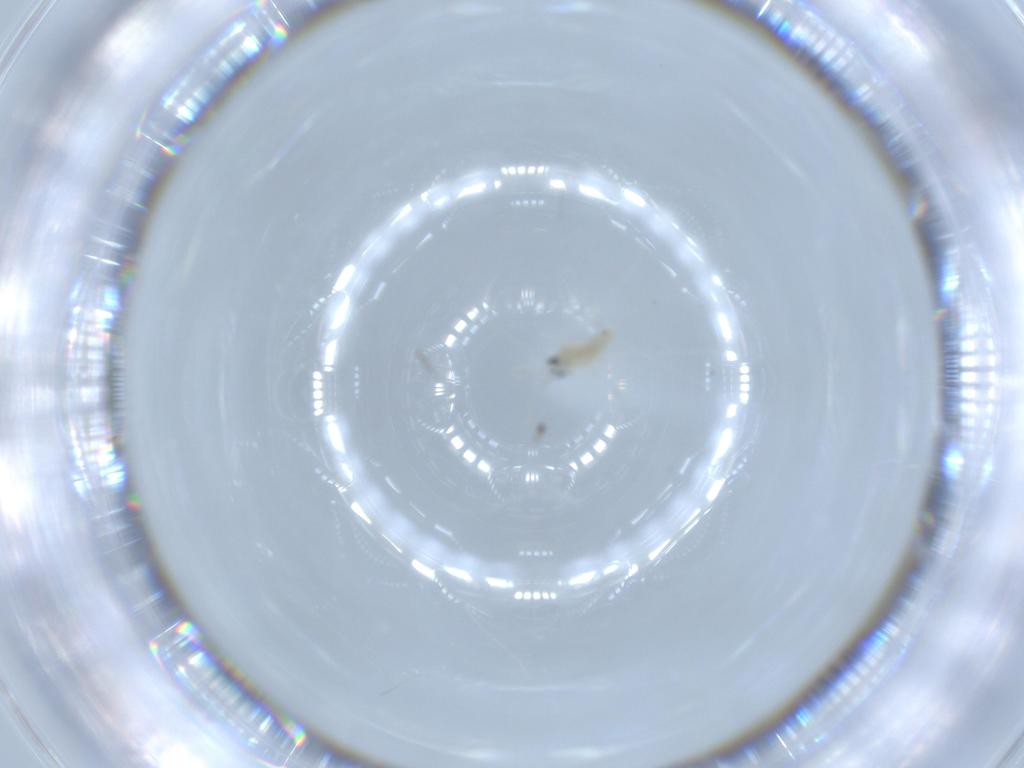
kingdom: Animalia
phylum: Arthropoda
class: Insecta
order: Diptera
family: Cecidomyiidae
